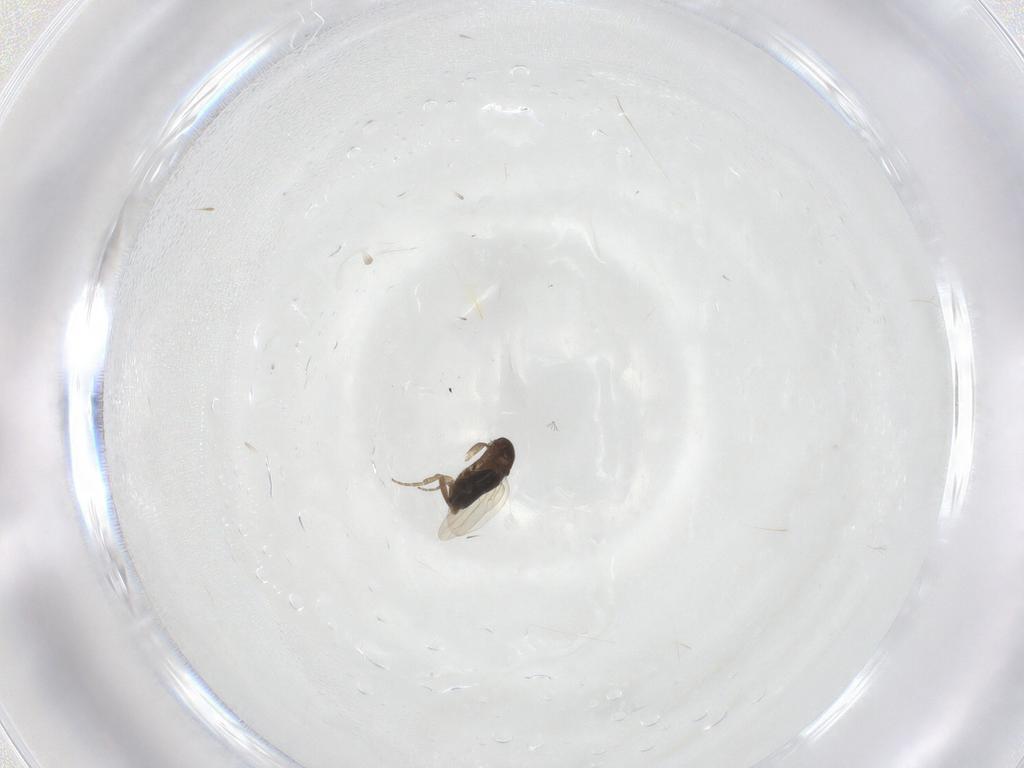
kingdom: Animalia
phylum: Arthropoda
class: Insecta
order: Diptera
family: Phoridae
